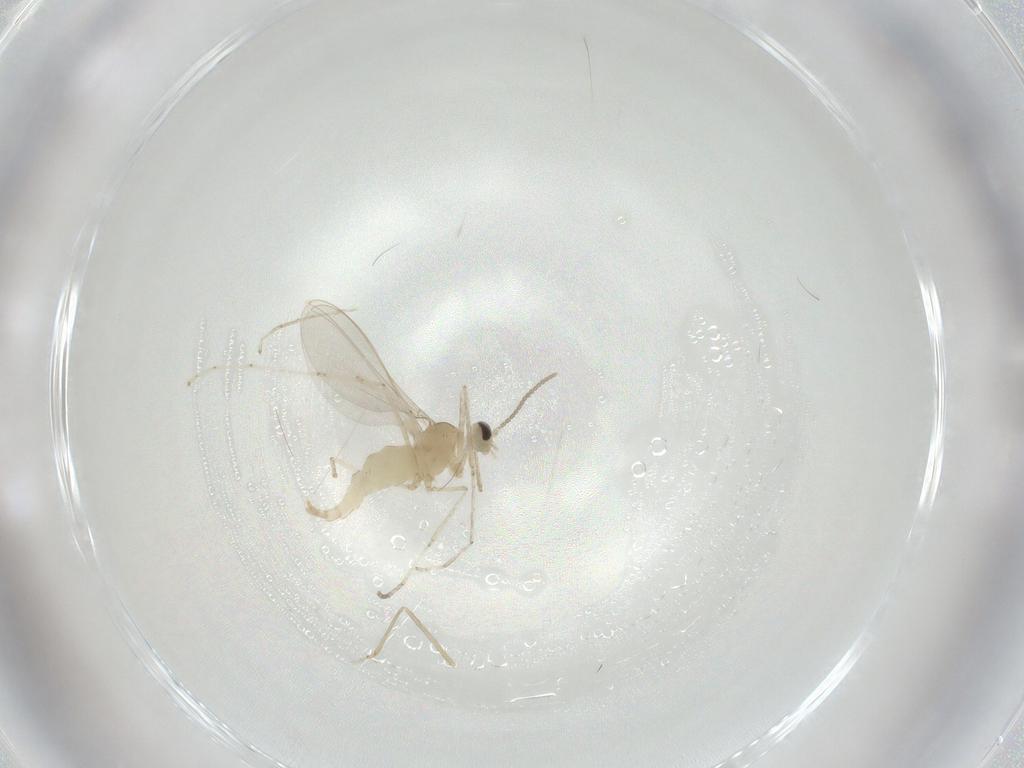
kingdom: Animalia
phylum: Arthropoda
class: Insecta
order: Diptera
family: Cecidomyiidae
